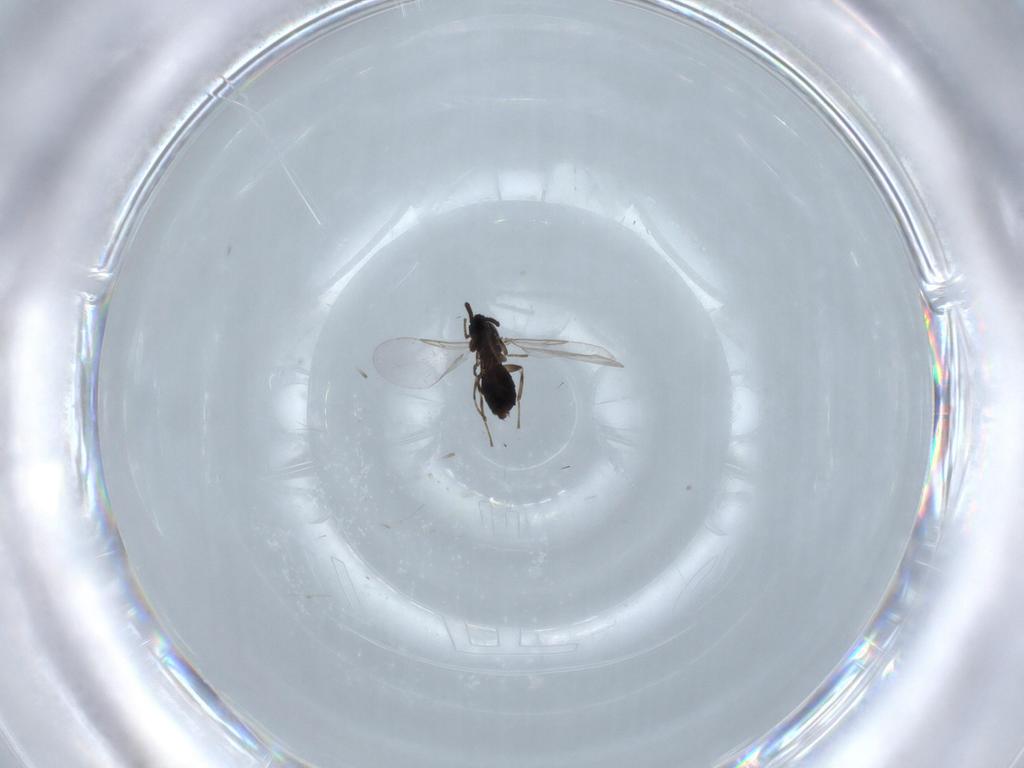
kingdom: Animalia
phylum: Arthropoda
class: Insecta
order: Diptera
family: Scatopsidae
